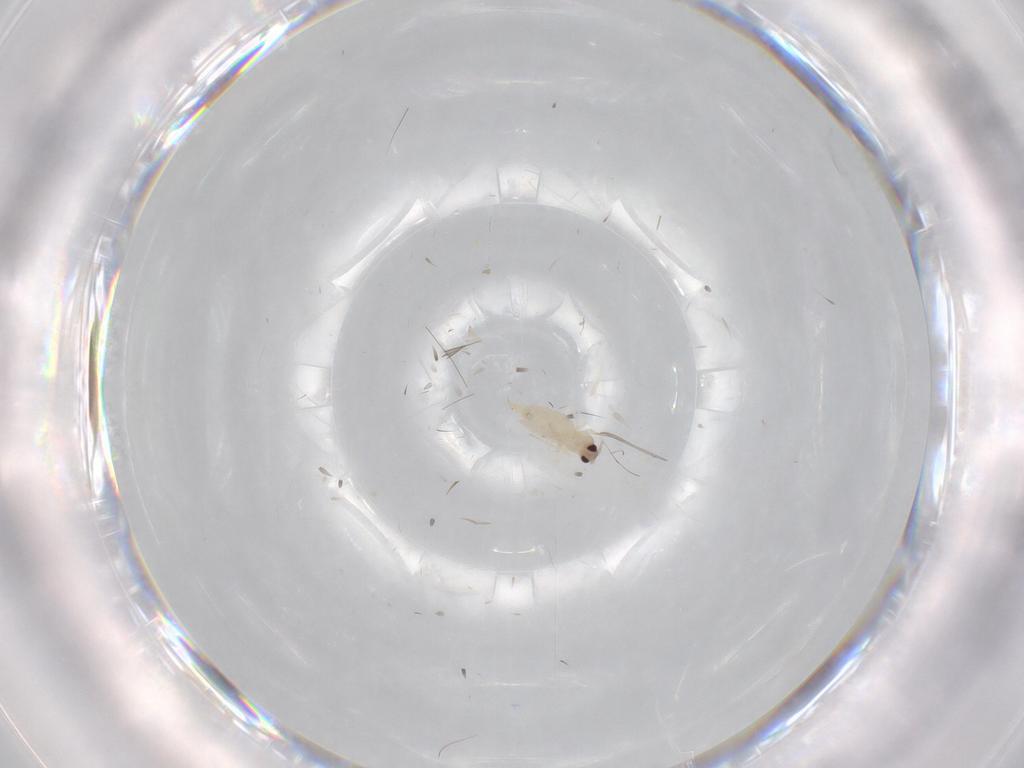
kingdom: Animalia
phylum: Arthropoda
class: Insecta
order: Diptera
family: Cecidomyiidae
